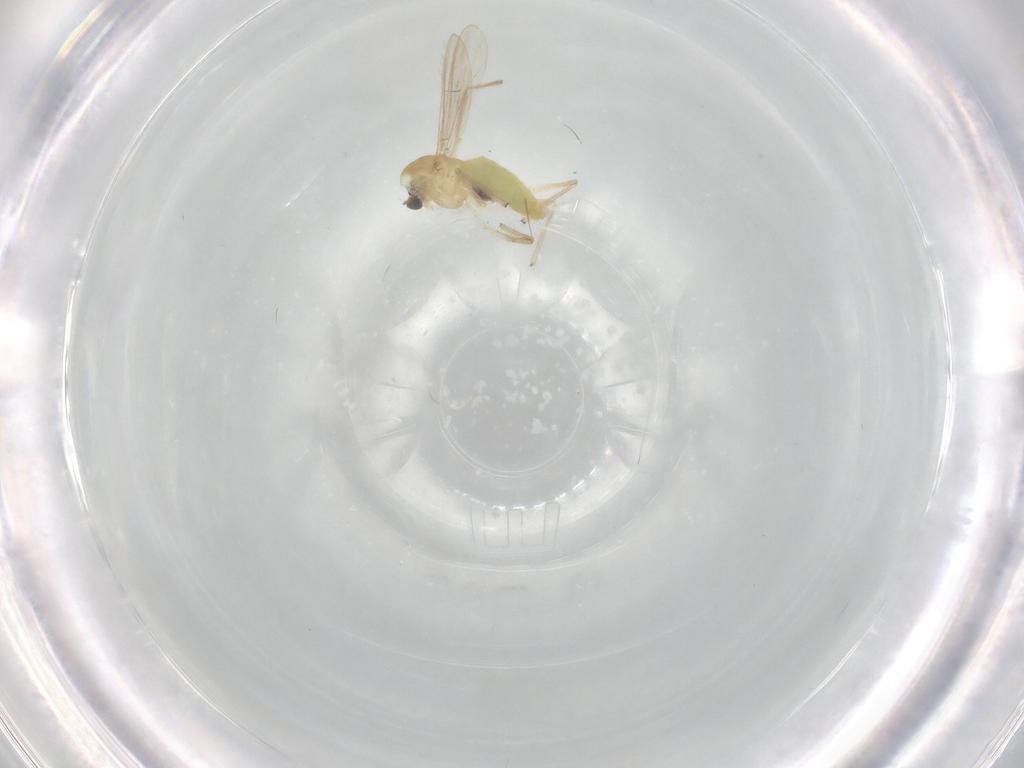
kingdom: Animalia
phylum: Arthropoda
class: Insecta
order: Diptera
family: Chironomidae
